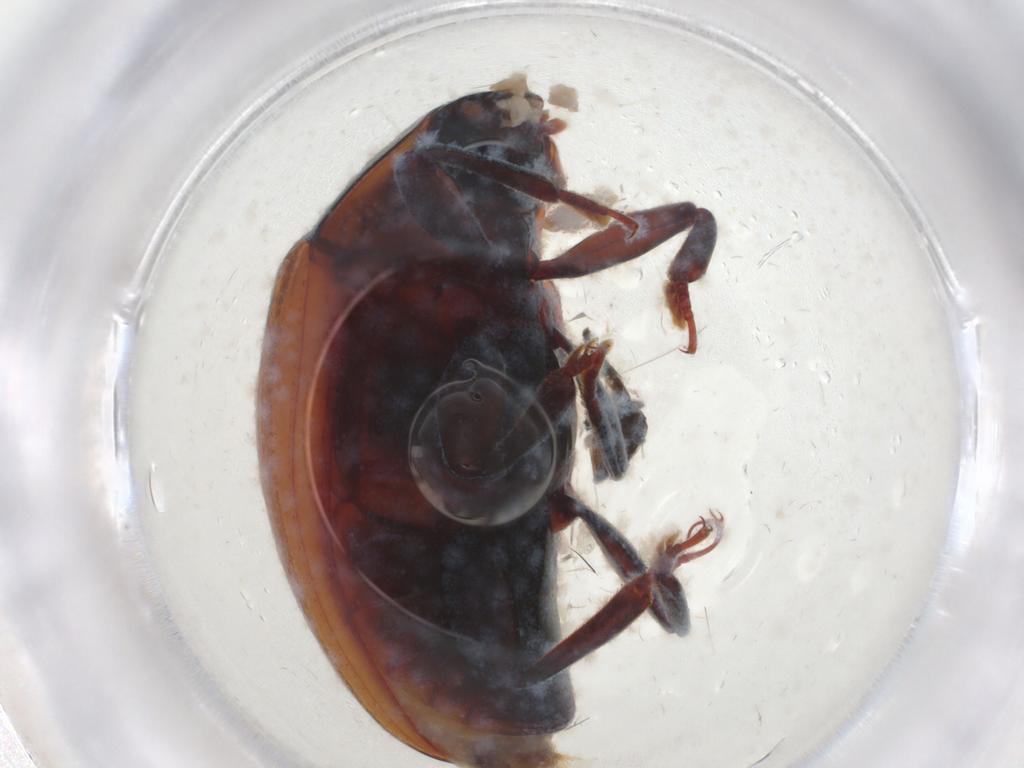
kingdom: Animalia
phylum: Arthropoda
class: Insecta
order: Coleoptera
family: Zopheridae
